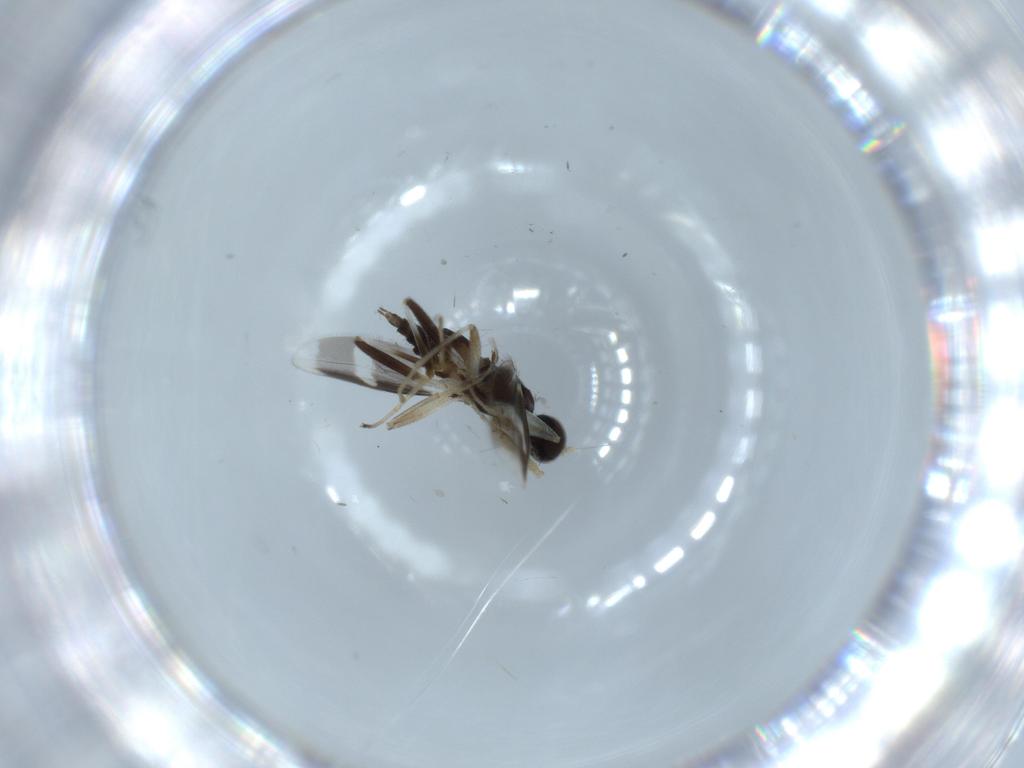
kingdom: Animalia
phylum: Arthropoda
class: Insecta
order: Diptera
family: Hybotidae
